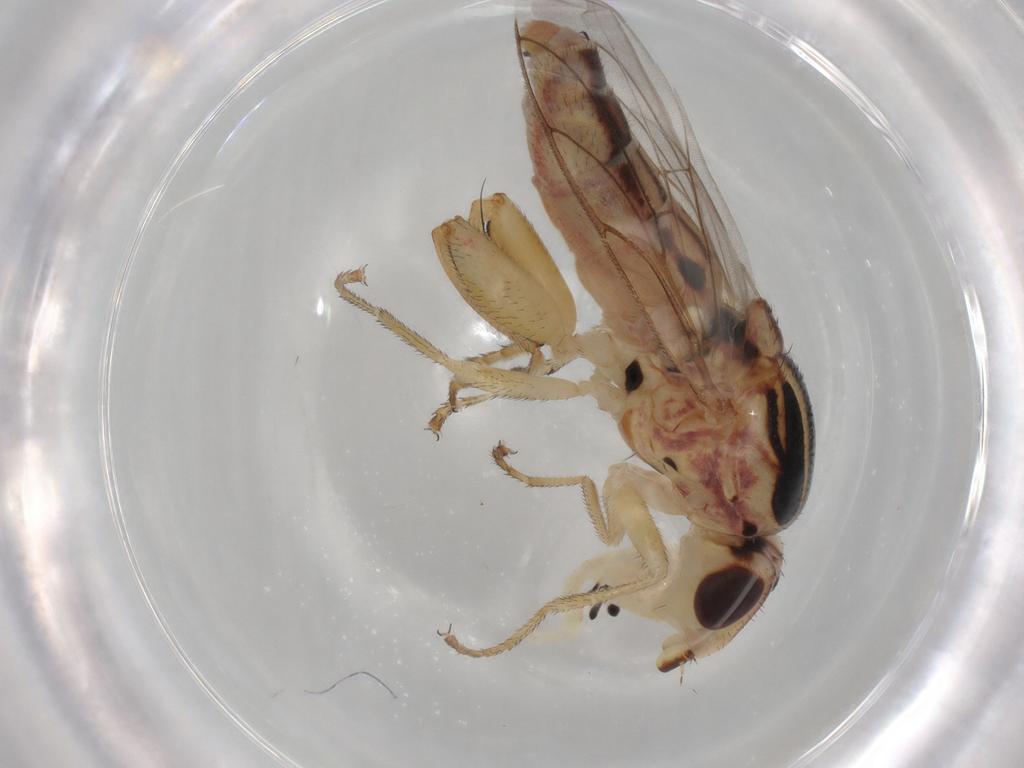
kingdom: Animalia
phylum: Arthropoda
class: Insecta
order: Diptera
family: Chloropidae
